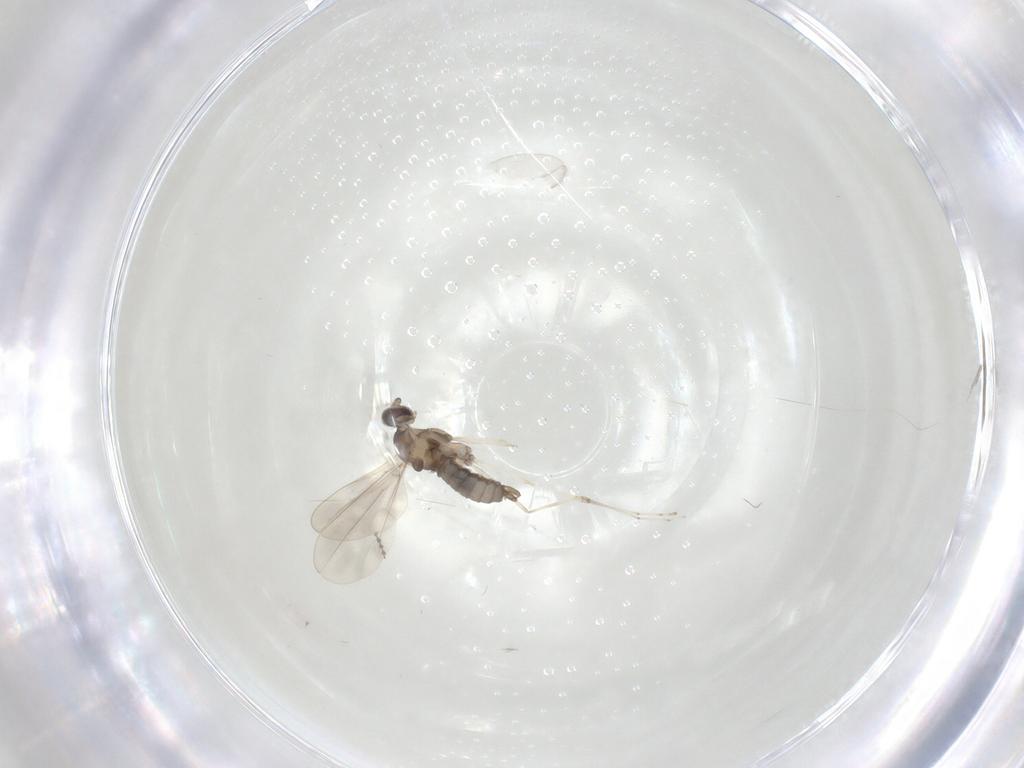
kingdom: Animalia
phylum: Arthropoda
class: Insecta
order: Diptera
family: Cecidomyiidae
